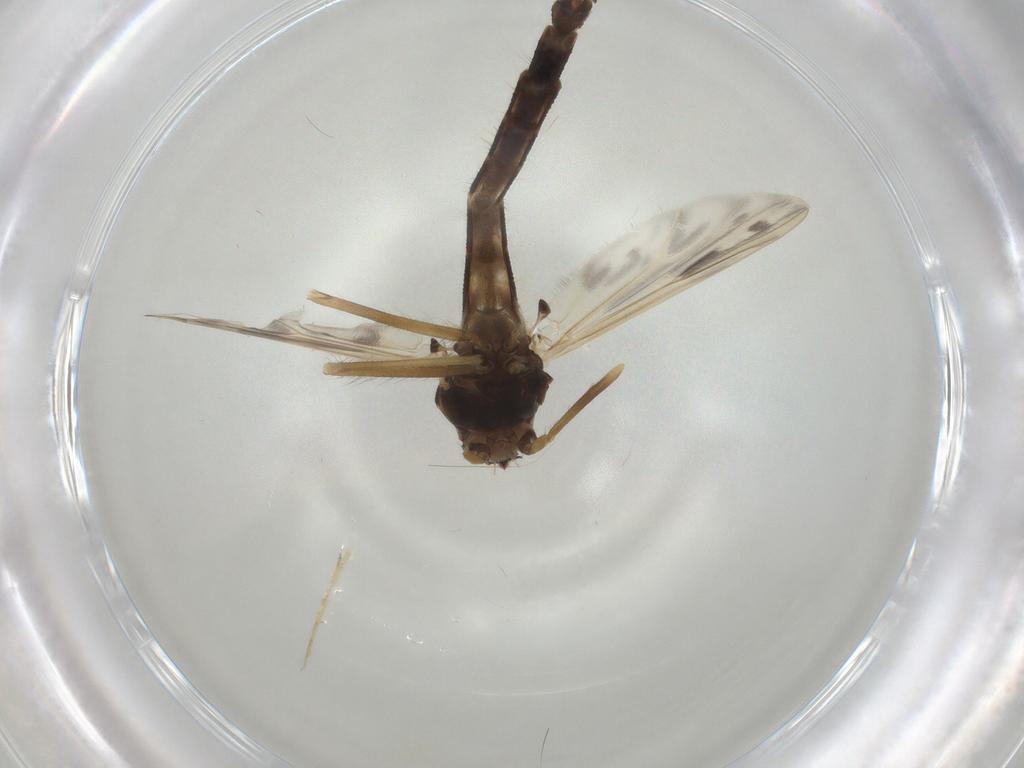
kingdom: Animalia
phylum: Arthropoda
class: Insecta
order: Diptera
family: Chironomidae
